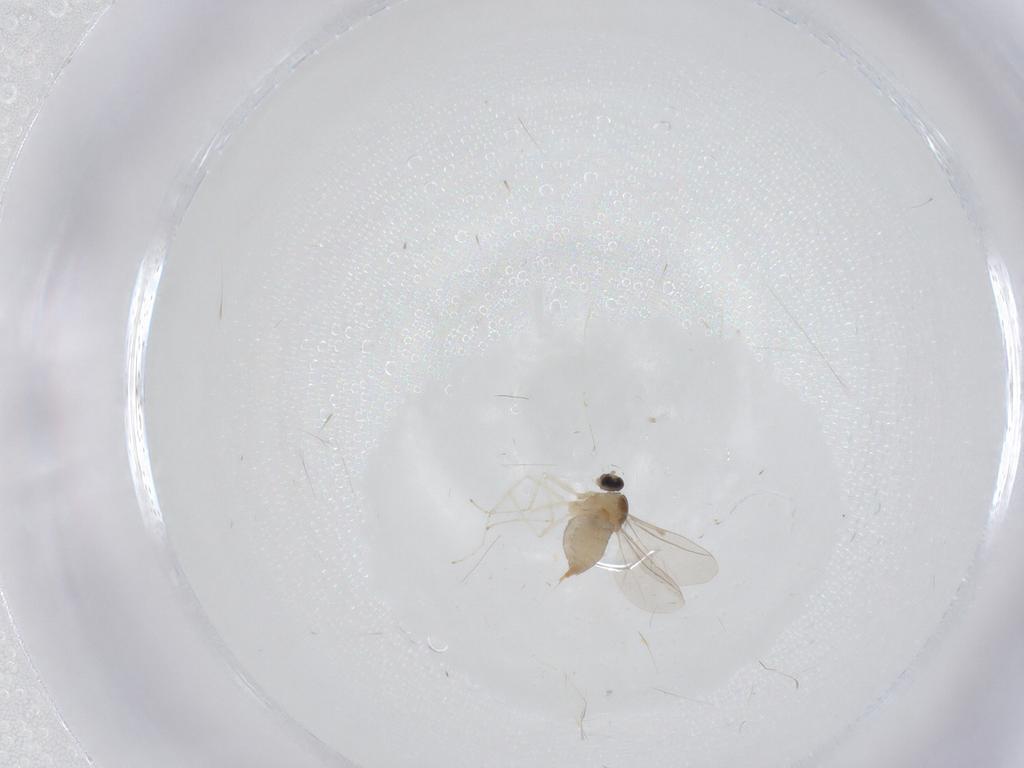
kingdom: Animalia
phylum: Arthropoda
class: Insecta
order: Diptera
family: Cecidomyiidae
